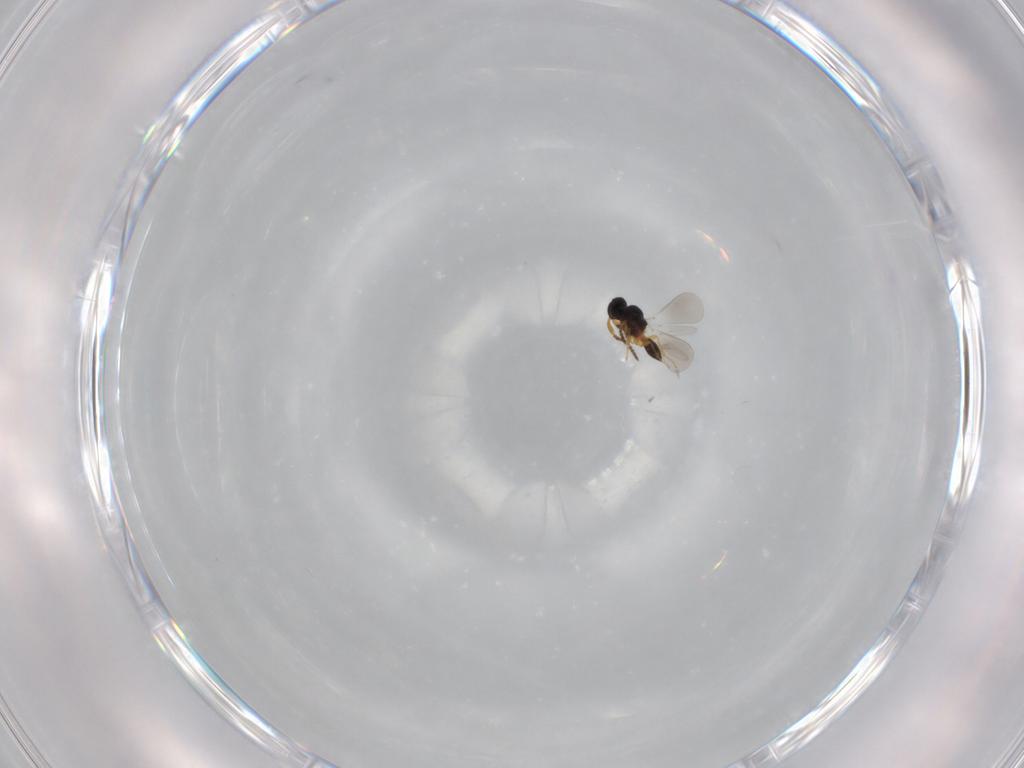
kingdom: Animalia
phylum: Arthropoda
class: Insecta
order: Hymenoptera
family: Platygastridae
